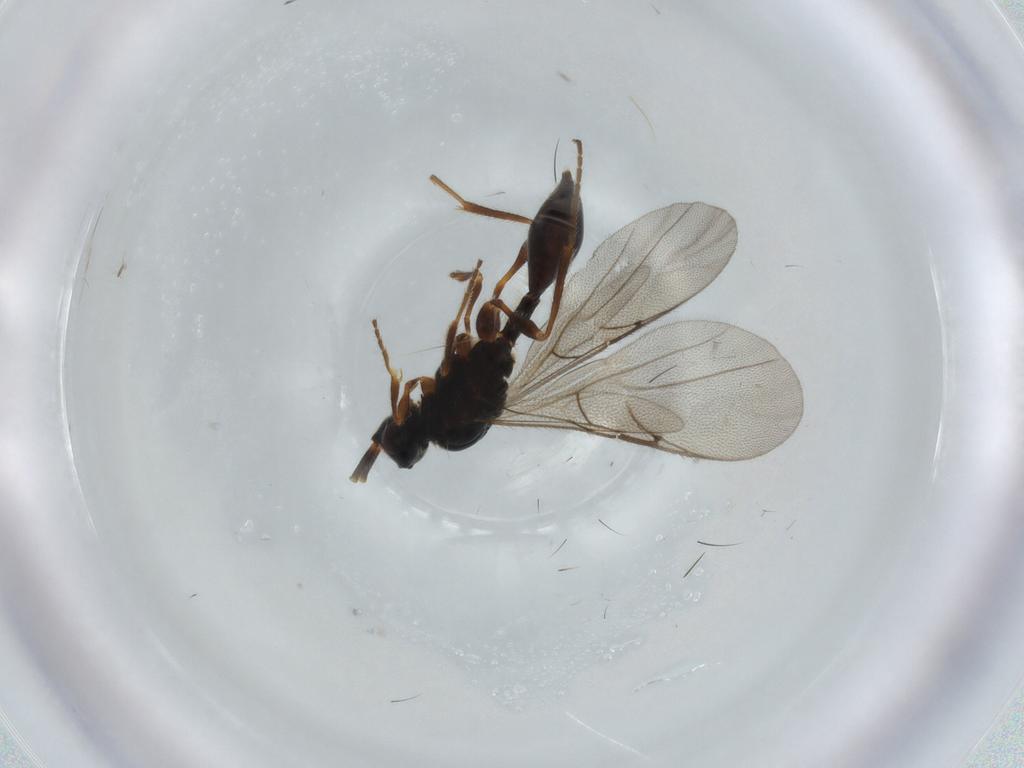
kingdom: Animalia
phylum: Arthropoda
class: Insecta
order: Hymenoptera
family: Diapriidae
